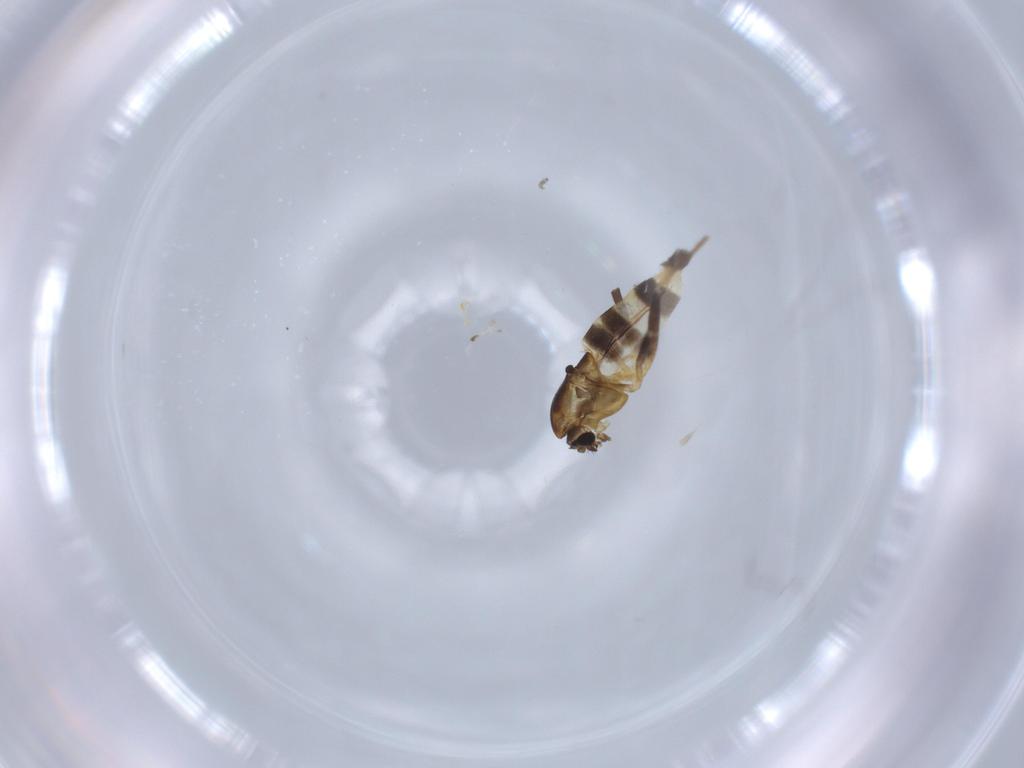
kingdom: Animalia
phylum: Arthropoda
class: Insecta
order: Diptera
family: Chironomidae
